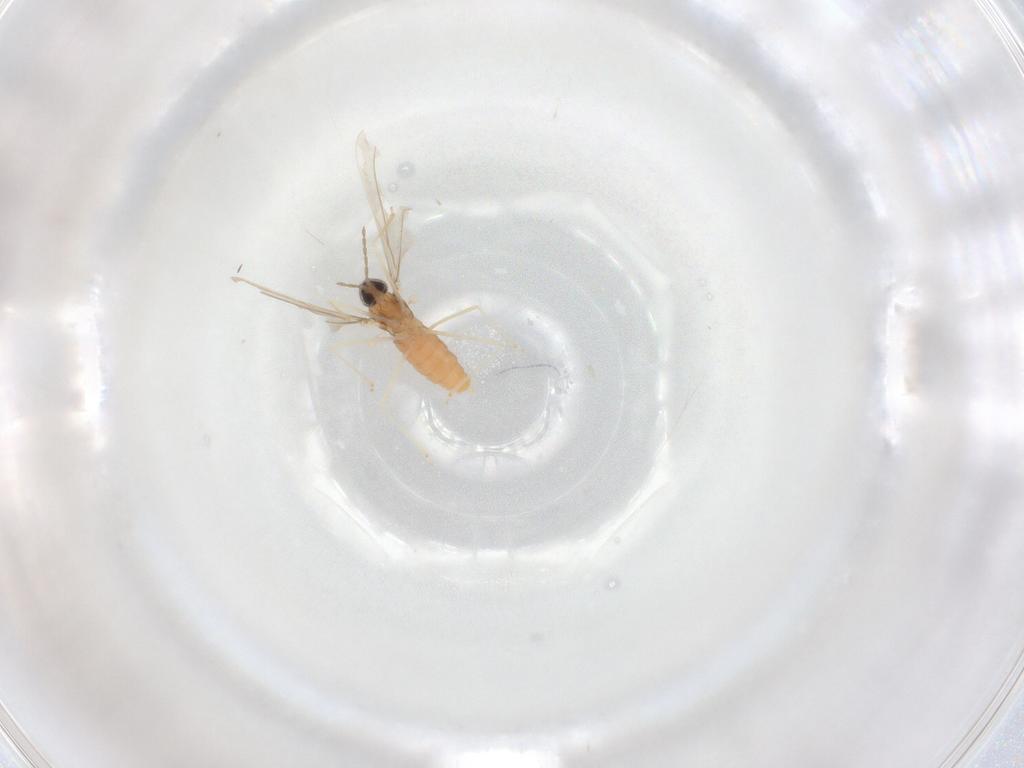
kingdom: Animalia
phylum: Arthropoda
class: Insecta
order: Diptera
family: Cecidomyiidae
